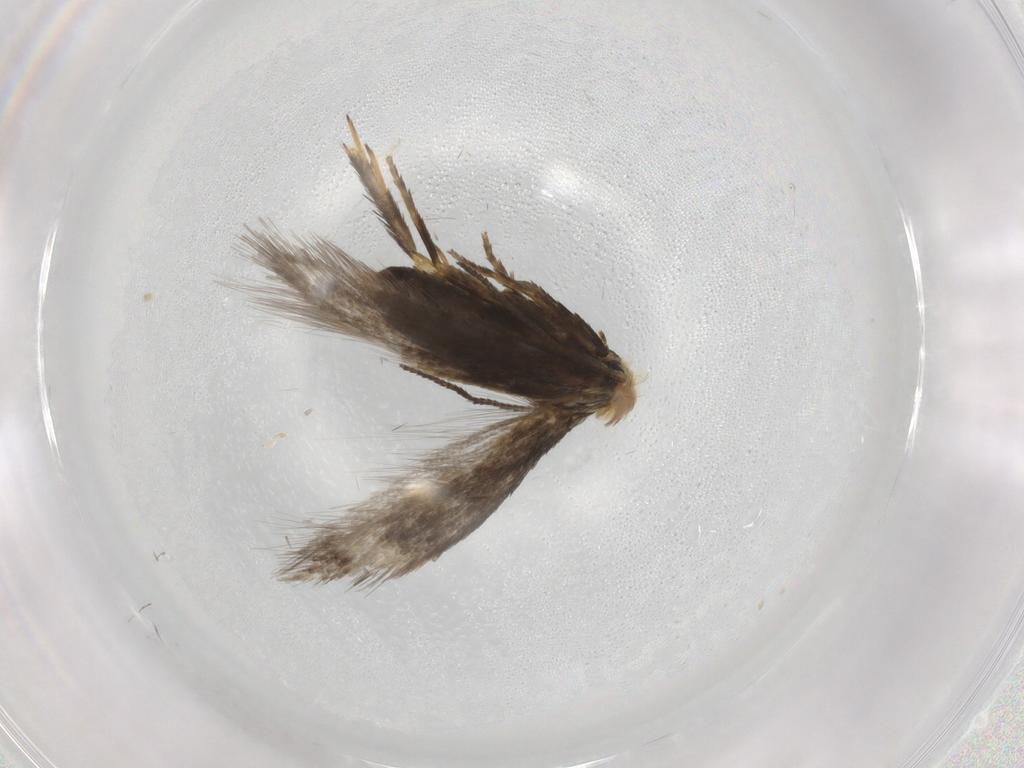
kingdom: Animalia
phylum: Arthropoda
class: Insecta
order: Lepidoptera
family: Nepticulidae
